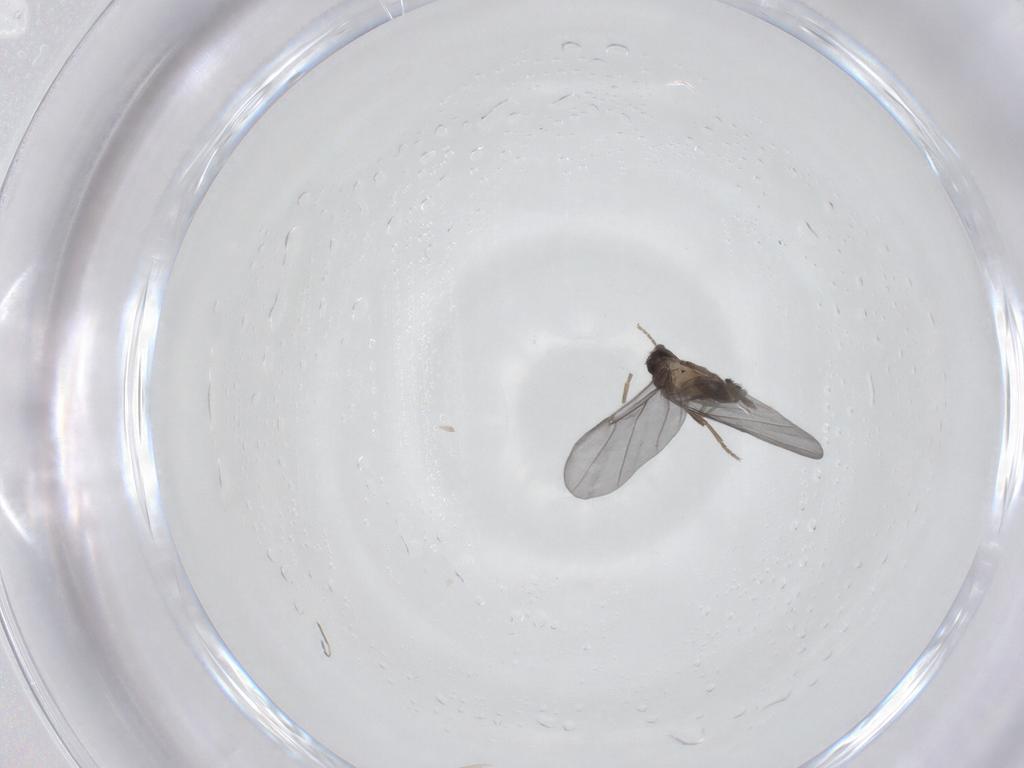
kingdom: Animalia
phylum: Arthropoda
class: Insecta
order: Diptera
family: Phoridae
